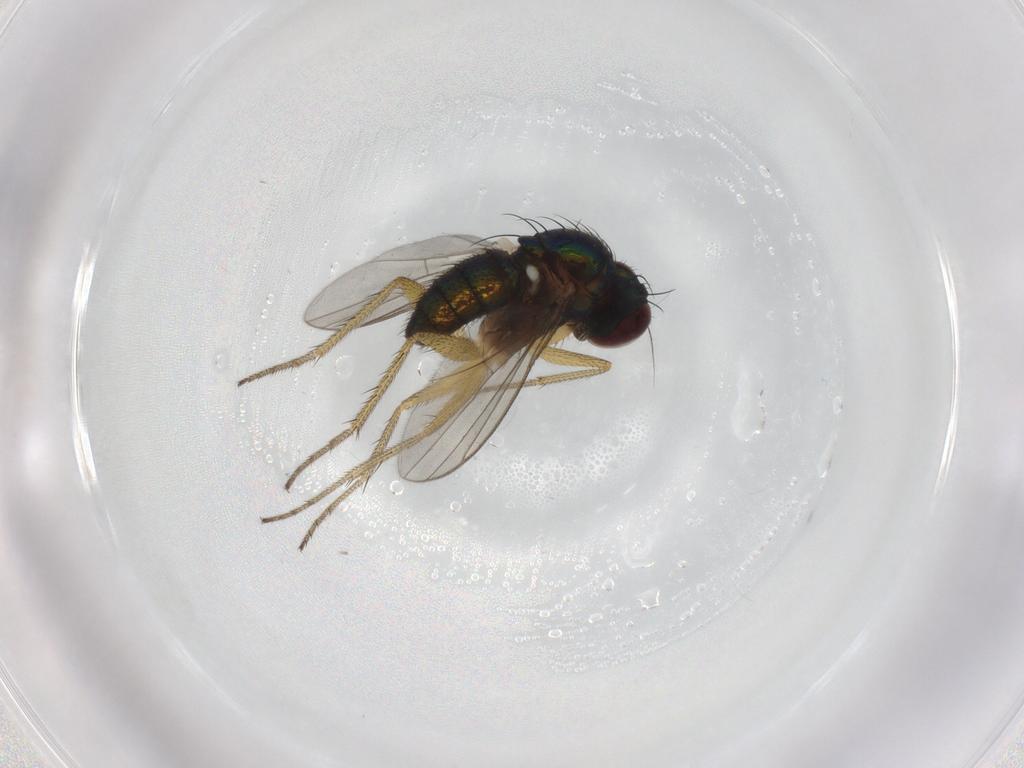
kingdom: Animalia
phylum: Arthropoda
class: Insecta
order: Diptera
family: Dolichopodidae
